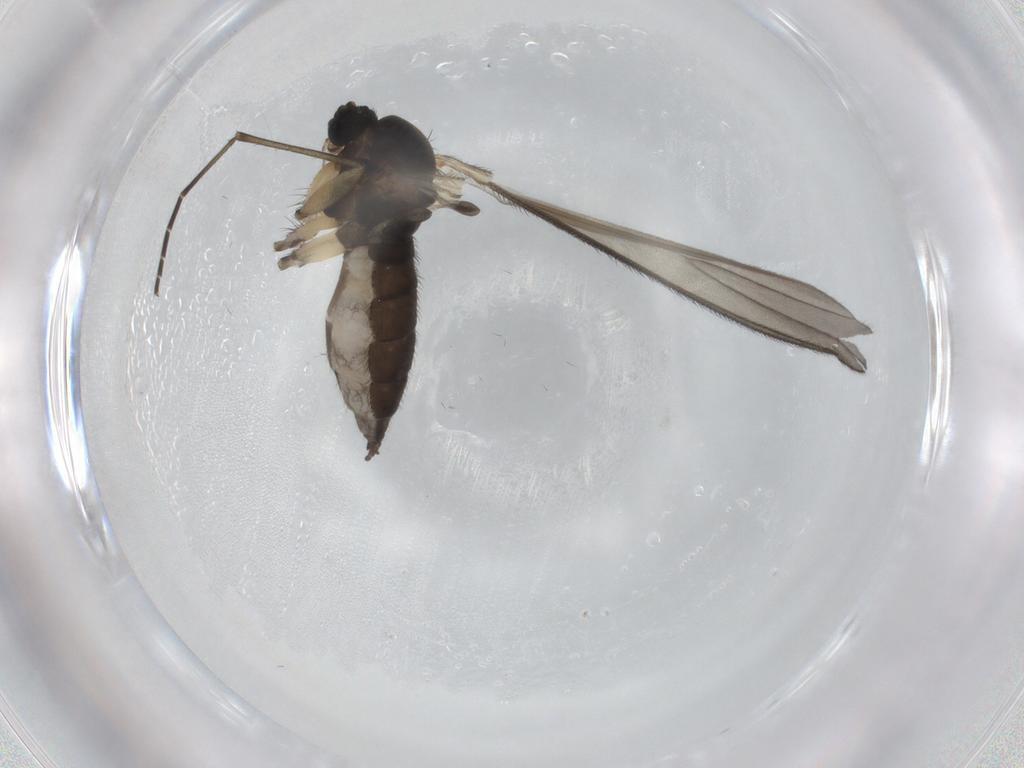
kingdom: Animalia
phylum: Arthropoda
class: Insecta
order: Diptera
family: Sciaridae
